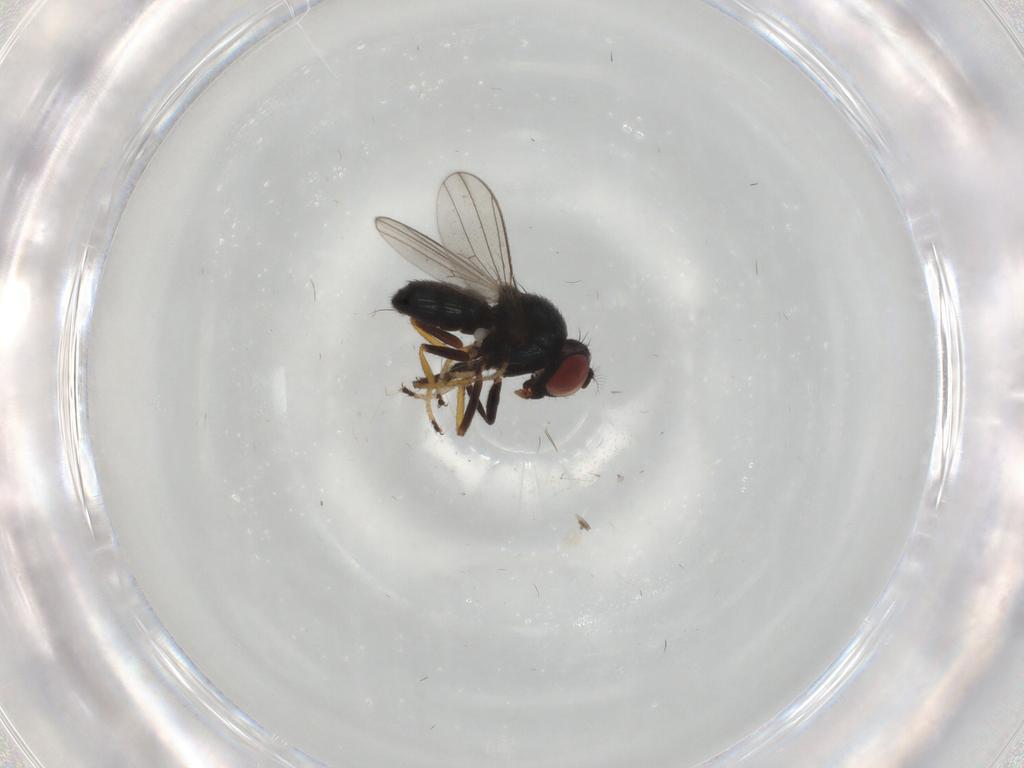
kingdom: Animalia
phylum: Arthropoda
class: Insecta
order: Diptera
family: Ephydridae
